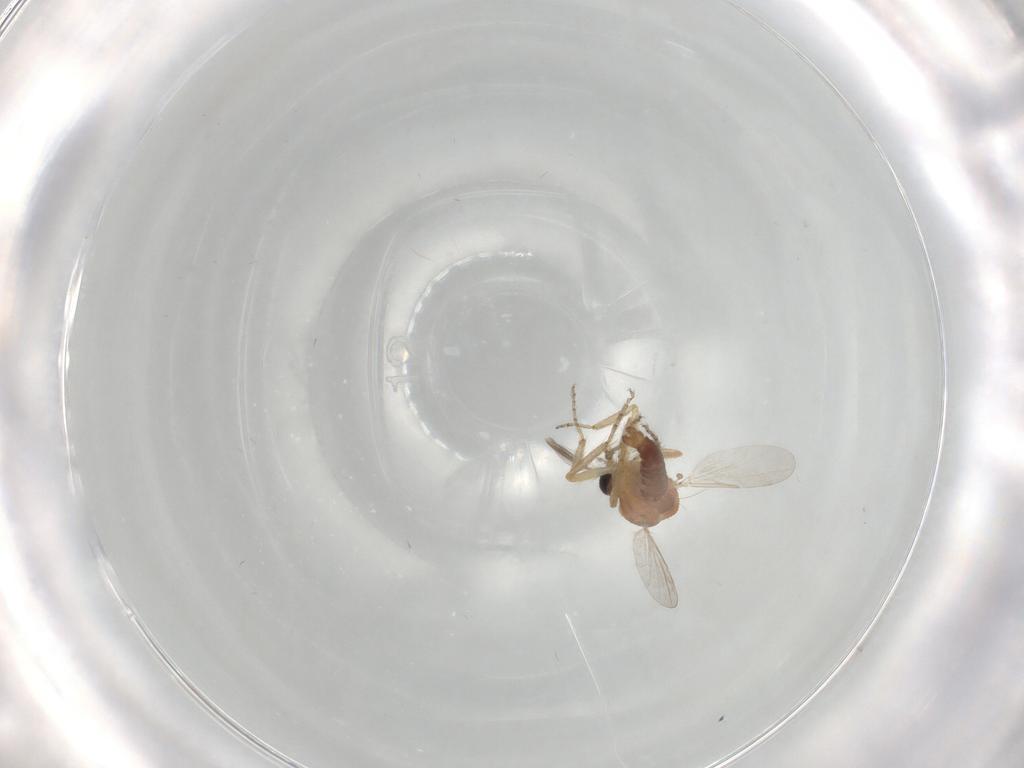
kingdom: Animalia
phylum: Arthropoda
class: Insecta
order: Diptera
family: Ceratopogonidae
